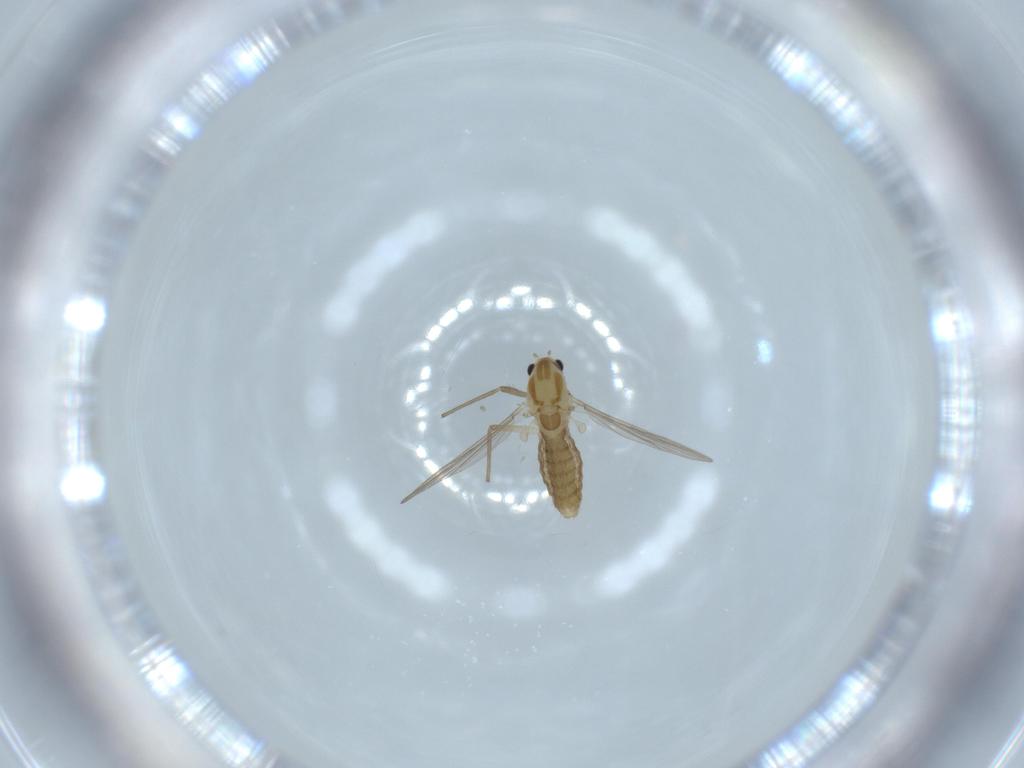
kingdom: Animalia
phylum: Arthropoda
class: Insecta
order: Diptera
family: Chironomidae
